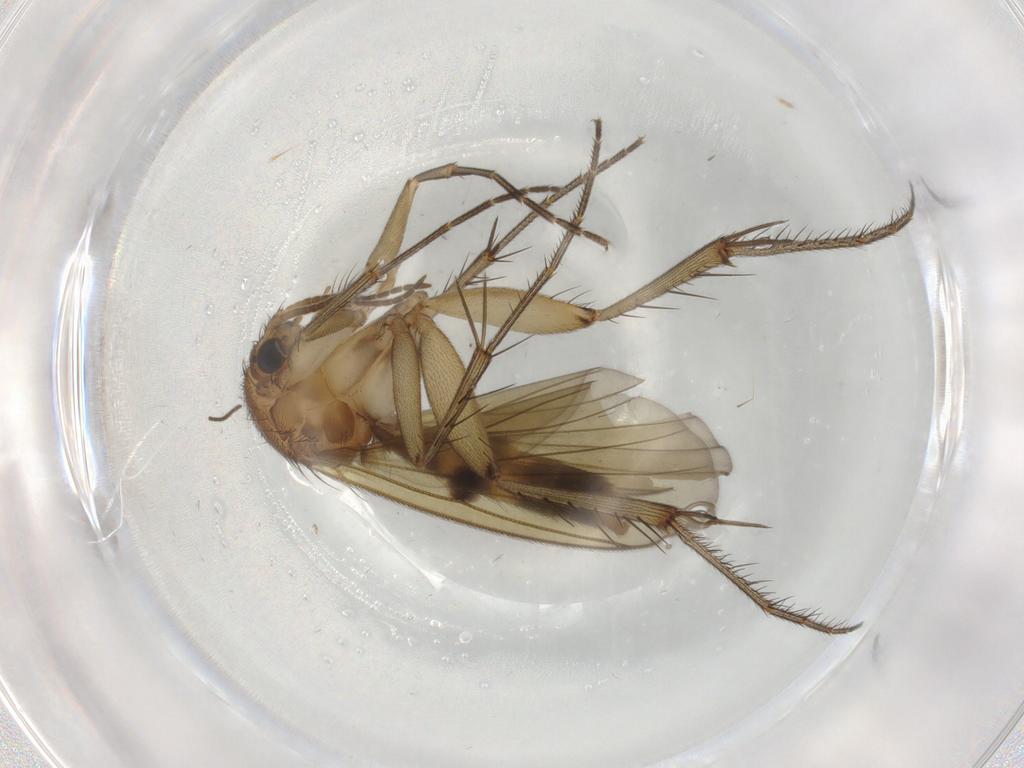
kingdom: Animalia
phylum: Arthropoda
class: Insecta
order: Diptera
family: Mycetophilidae
